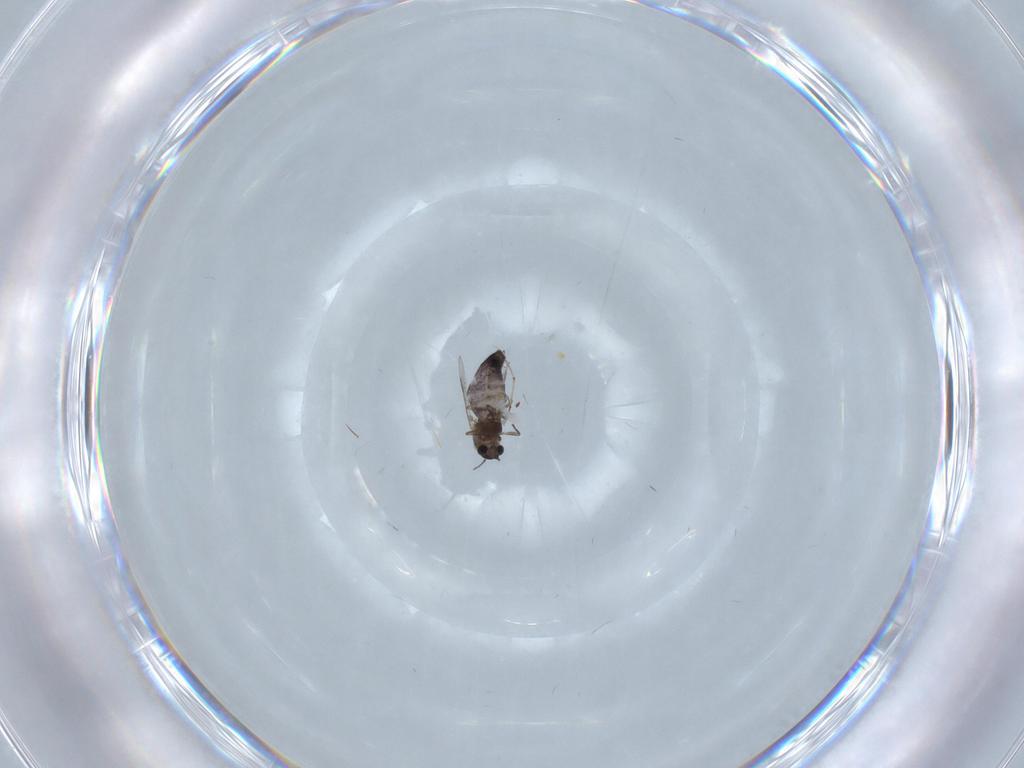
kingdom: Animalia
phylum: Arthropoda
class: Insecta
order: Diptera
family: Chironomidae
